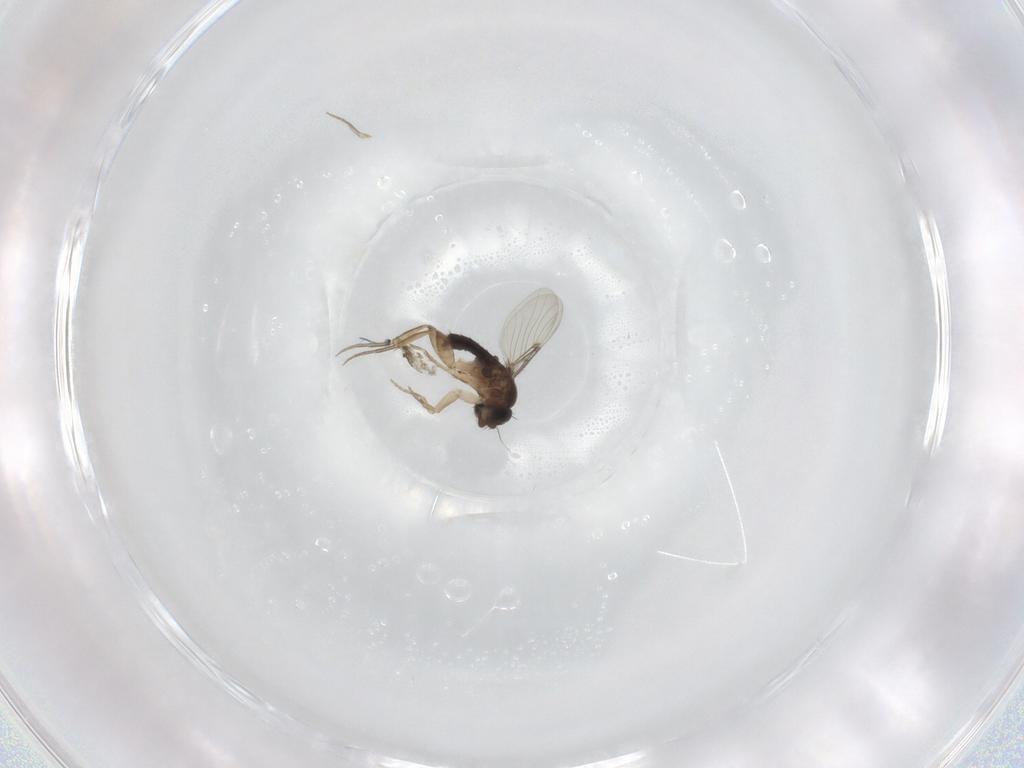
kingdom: Animalia
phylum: Arthropoda
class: Insecta
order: Diptera
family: Phoridae
